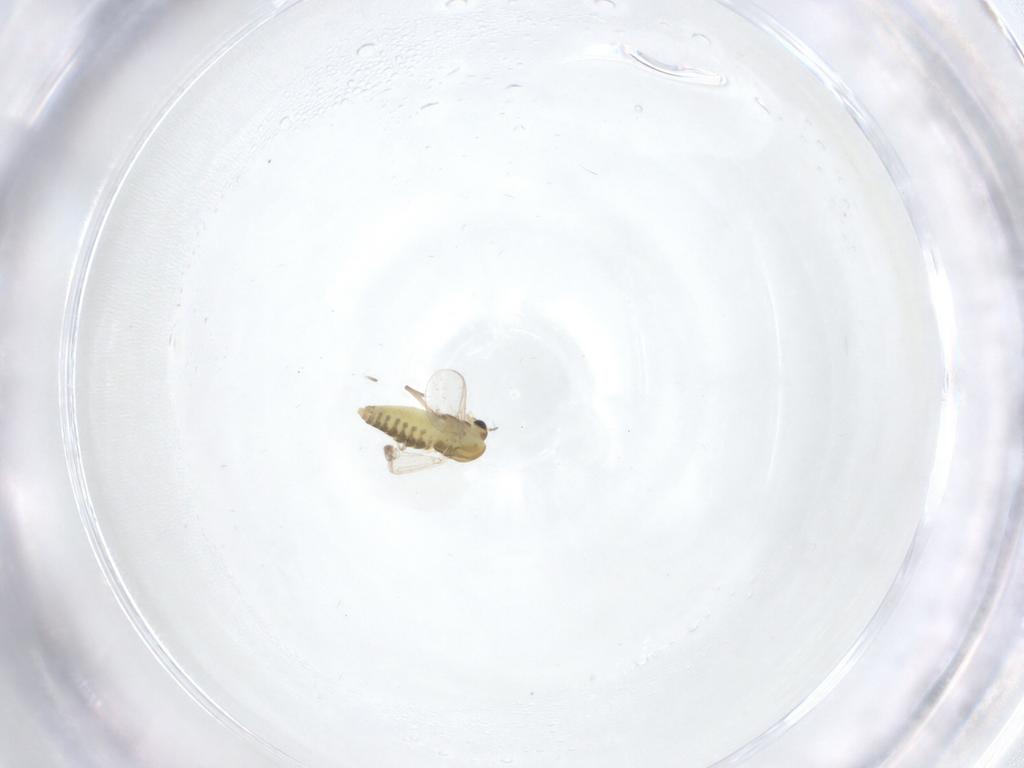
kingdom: Animalia
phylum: Arthropoda
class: Insecta
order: Diptera
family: Chironomidae
